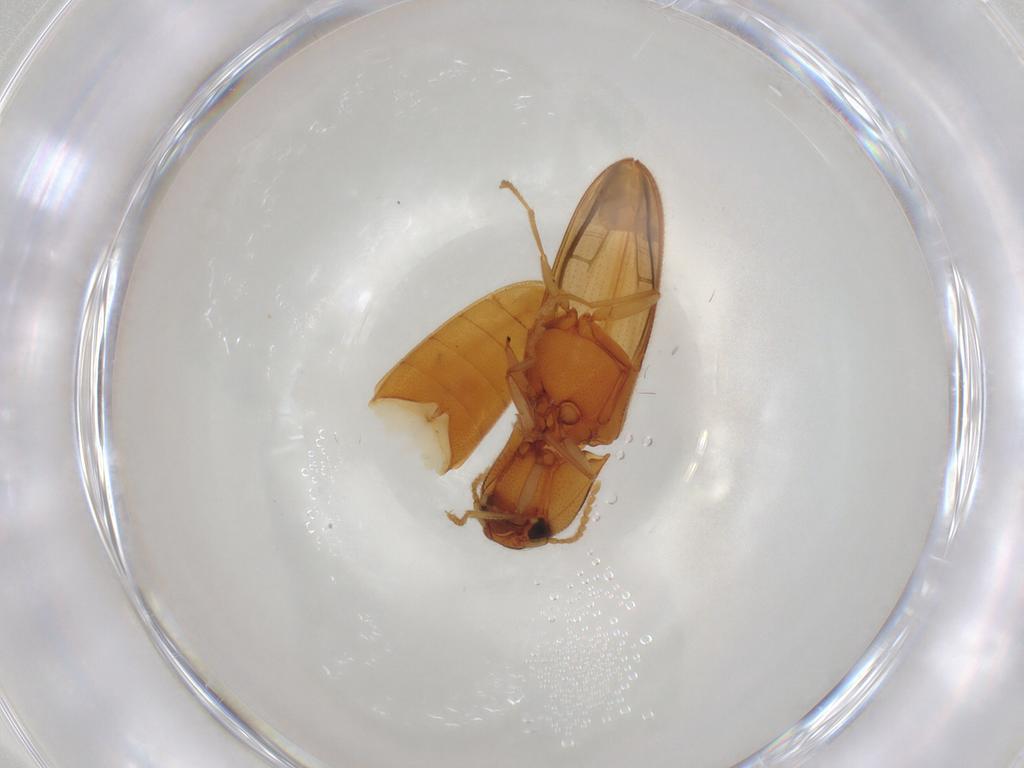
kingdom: Animalia
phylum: Arthropoda
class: Insecta
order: Coleoptera
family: Elateridae
